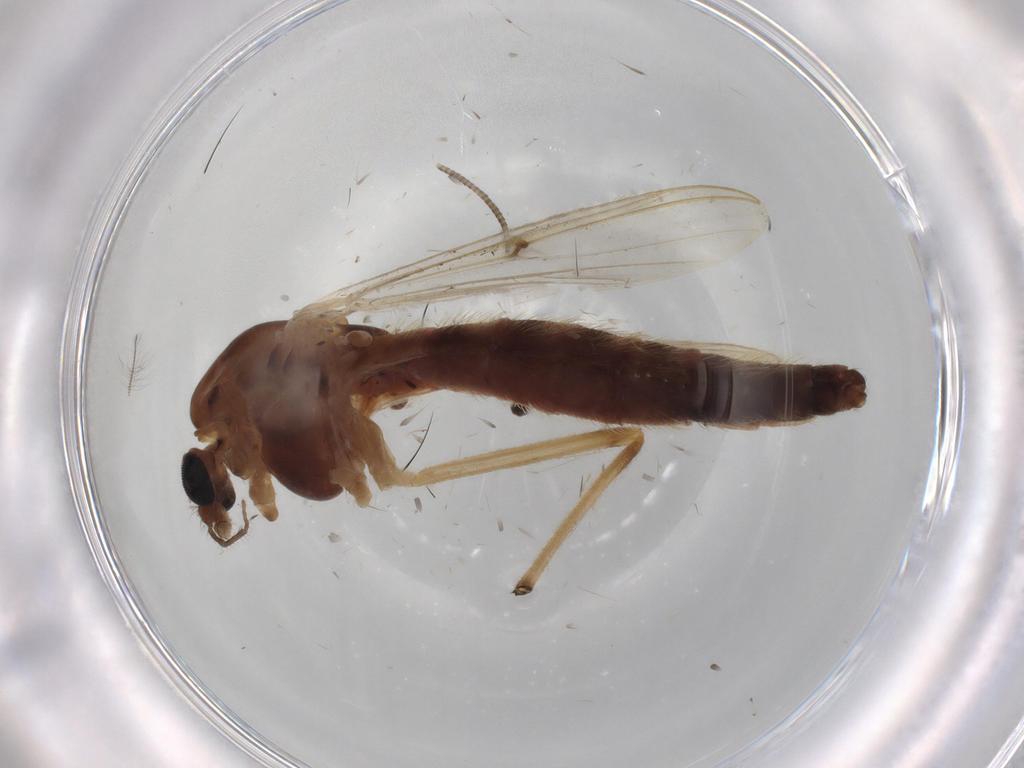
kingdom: Animalia
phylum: Arthropoda
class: Insecta
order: Diptera
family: Chironomidae
